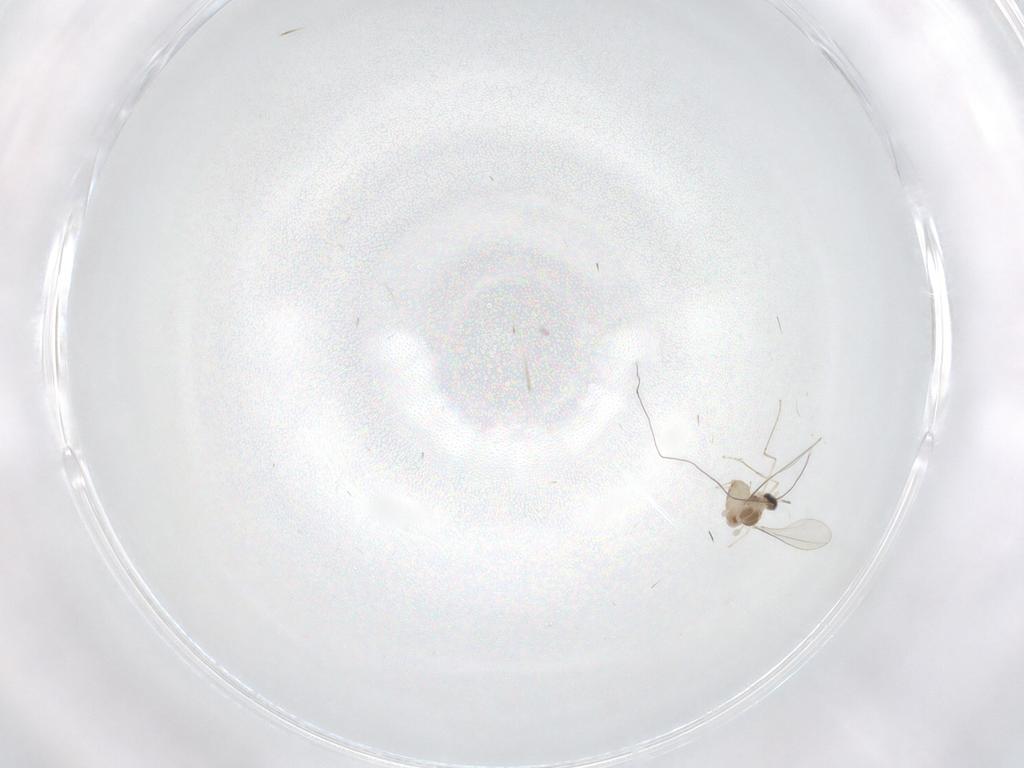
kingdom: Animalia
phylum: Arthropoda
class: Insecta
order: Diptera
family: Cecidomyiidae
